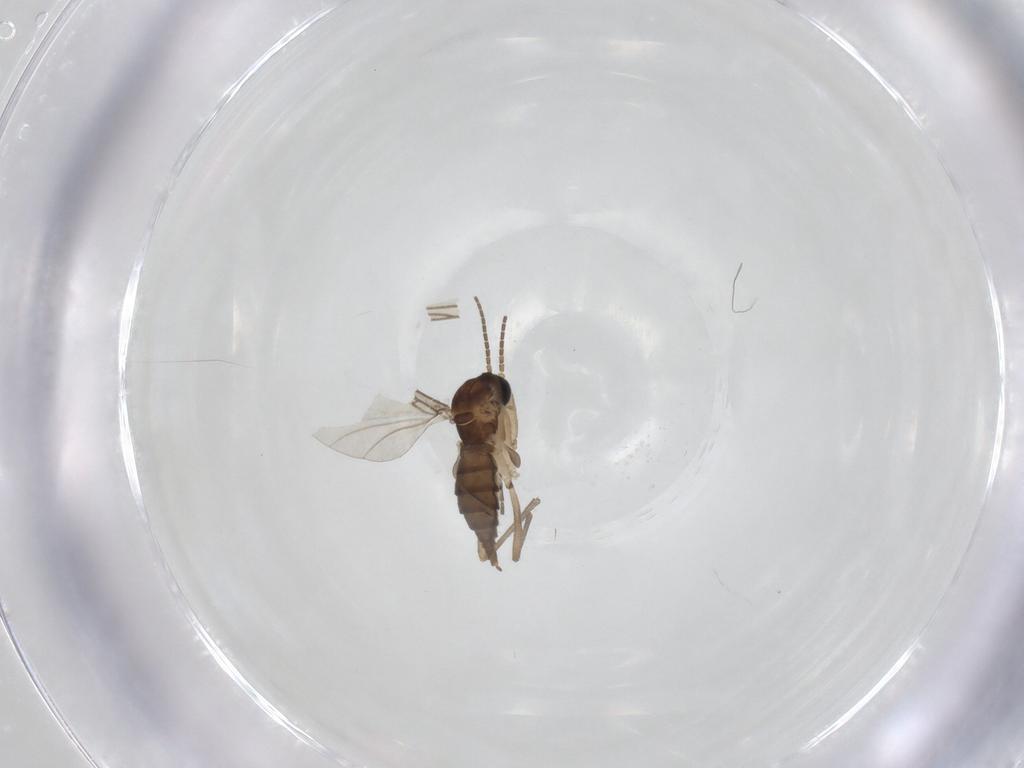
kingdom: Animalia
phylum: Arthropoda
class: Insecta
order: Diptera
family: Sciaridae
